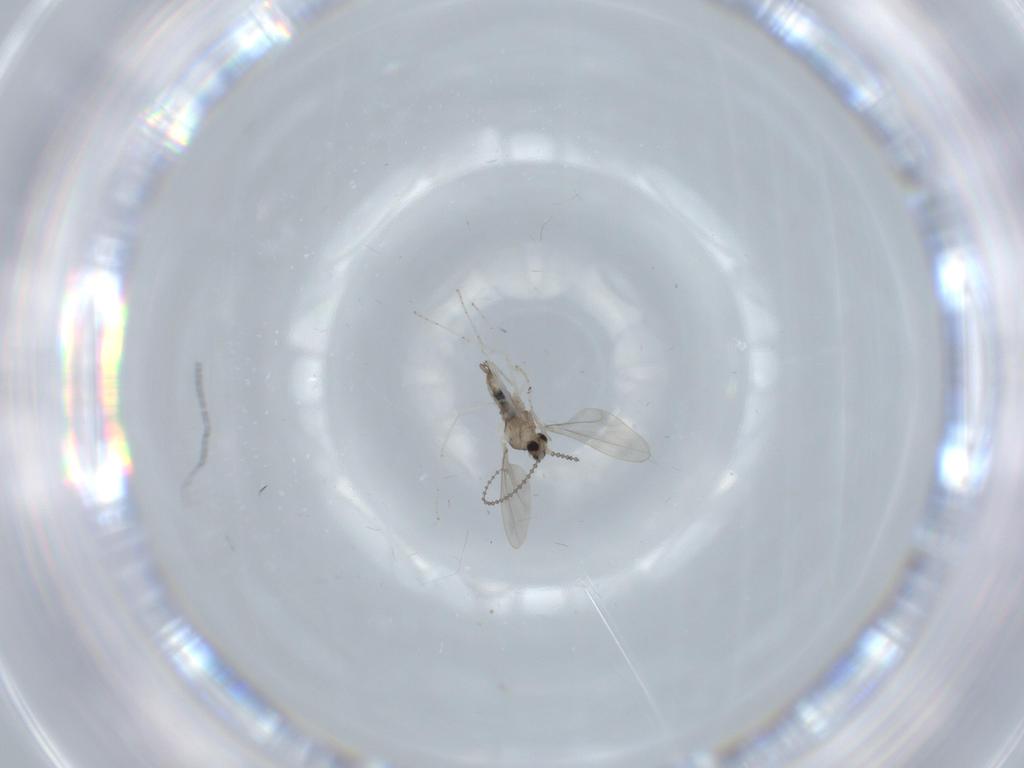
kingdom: Animalia
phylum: Arthropoda
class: Insecta
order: Diptera
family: Cecidomyiidae
